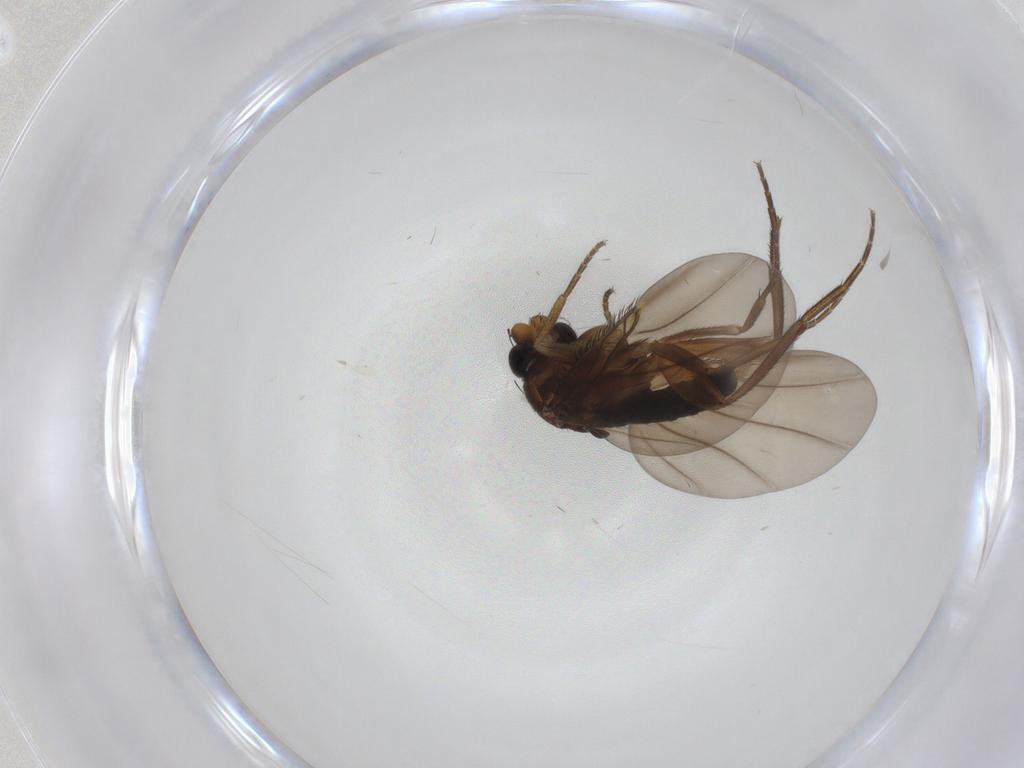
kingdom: Animalia
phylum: Arthropoda
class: Insecta
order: Diptera
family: Phoridae
